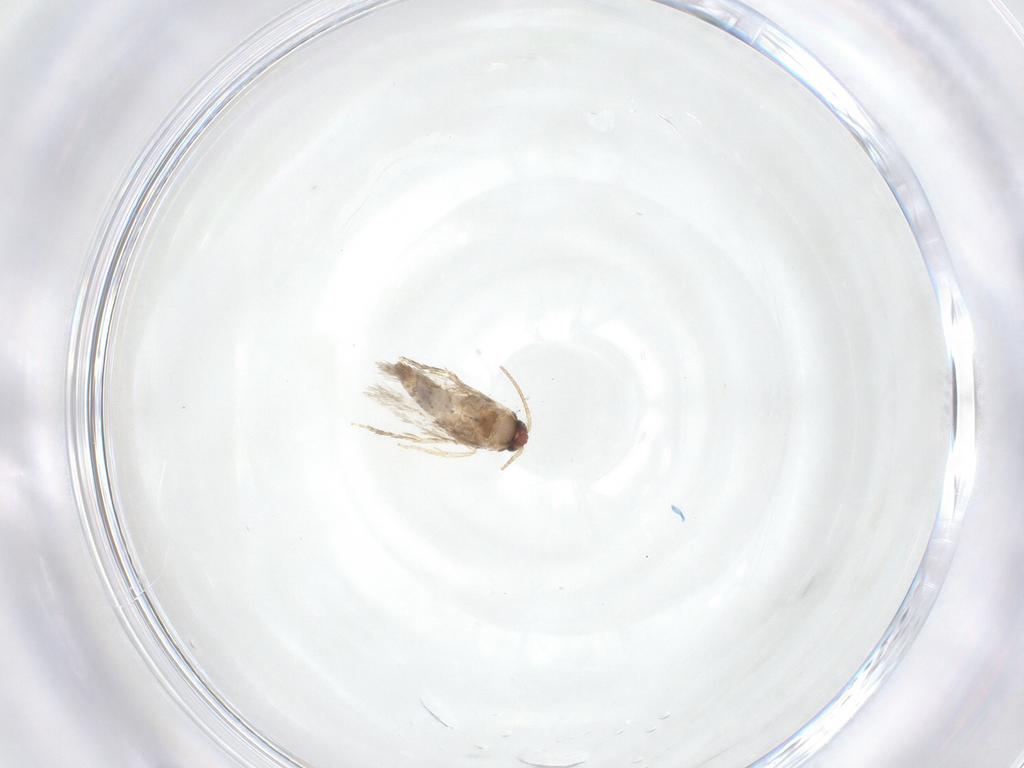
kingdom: Animalia
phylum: Arthropoda
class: Insecta
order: Lepidoptera
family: Nepticulidae
